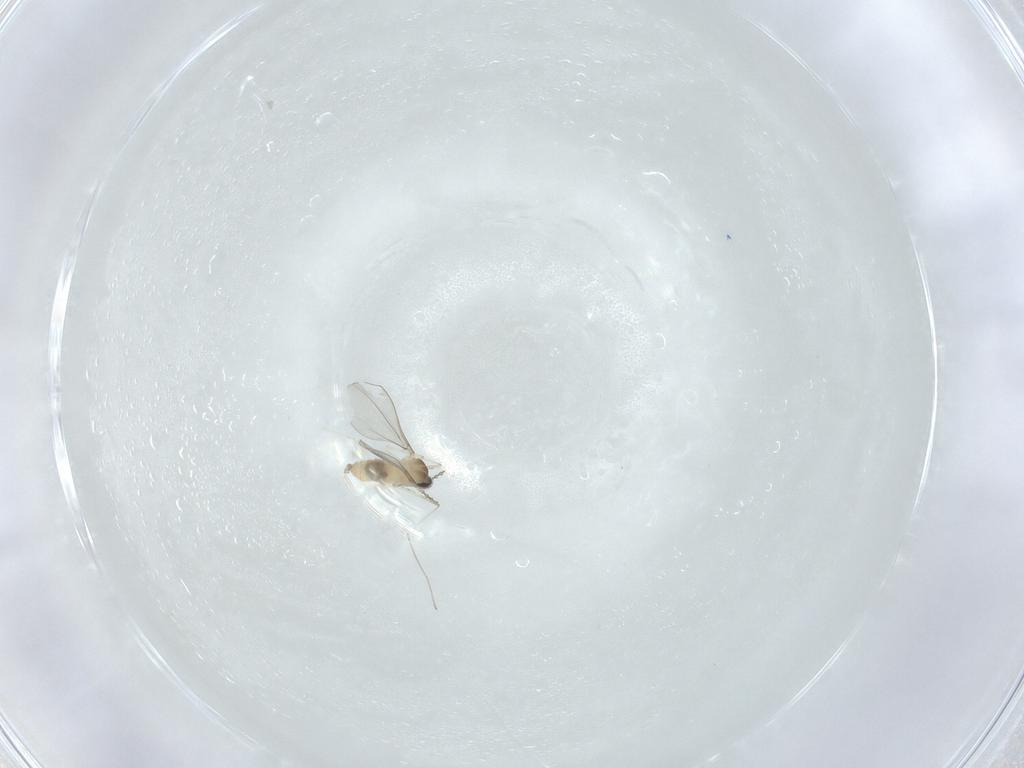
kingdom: Animalia
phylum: Arthropoda
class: Insecta
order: Diptera
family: Cecidomyiidae
